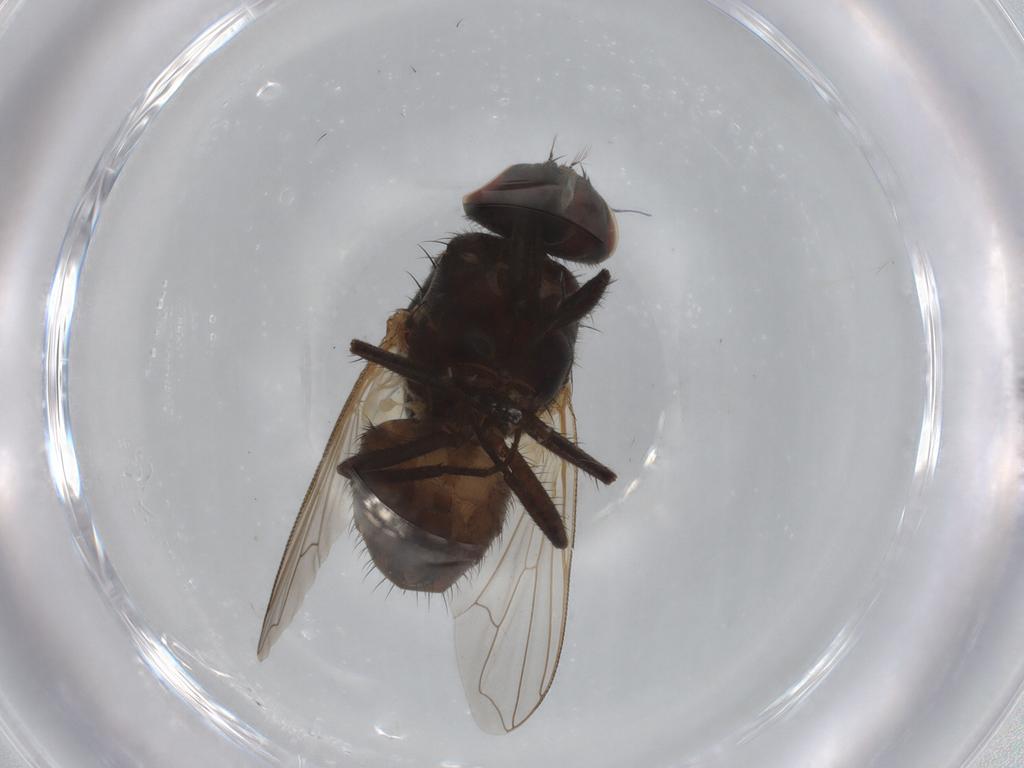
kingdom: Animalia
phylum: Arthropoda
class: Insecta
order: Diptera
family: Muscidae
